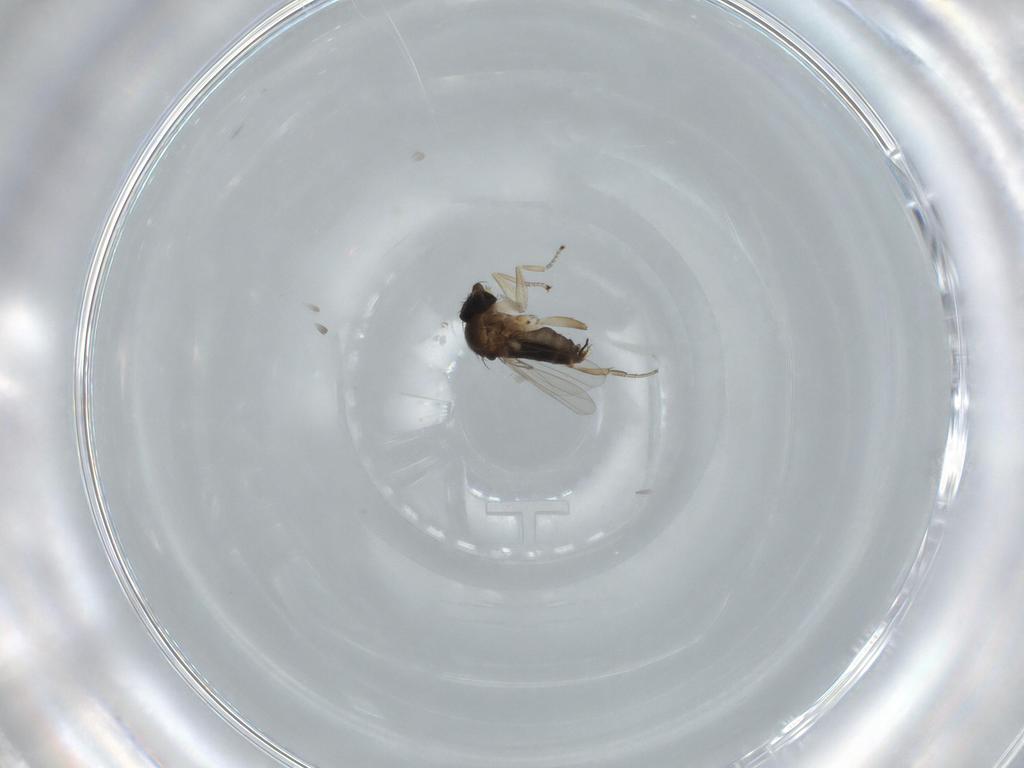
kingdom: Animalia
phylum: Arthropoda
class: Insecta
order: Diptera
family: Phoridae
